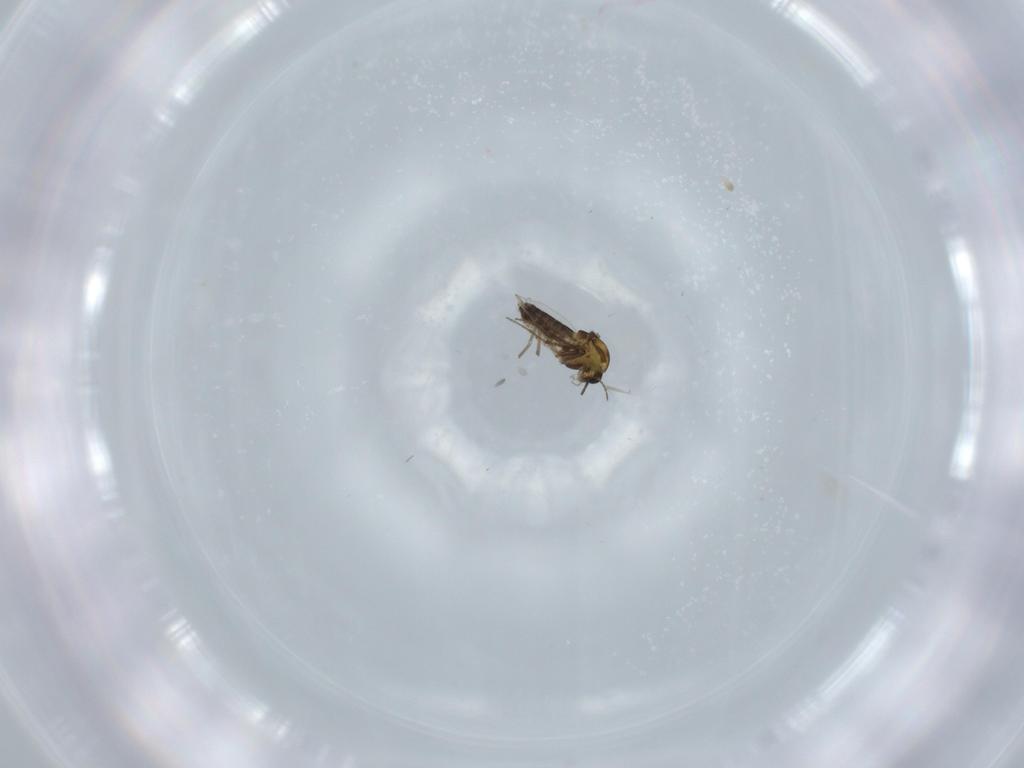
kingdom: Animalia
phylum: Arthropoda
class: Insecta
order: Diptera
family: Chironomidae
